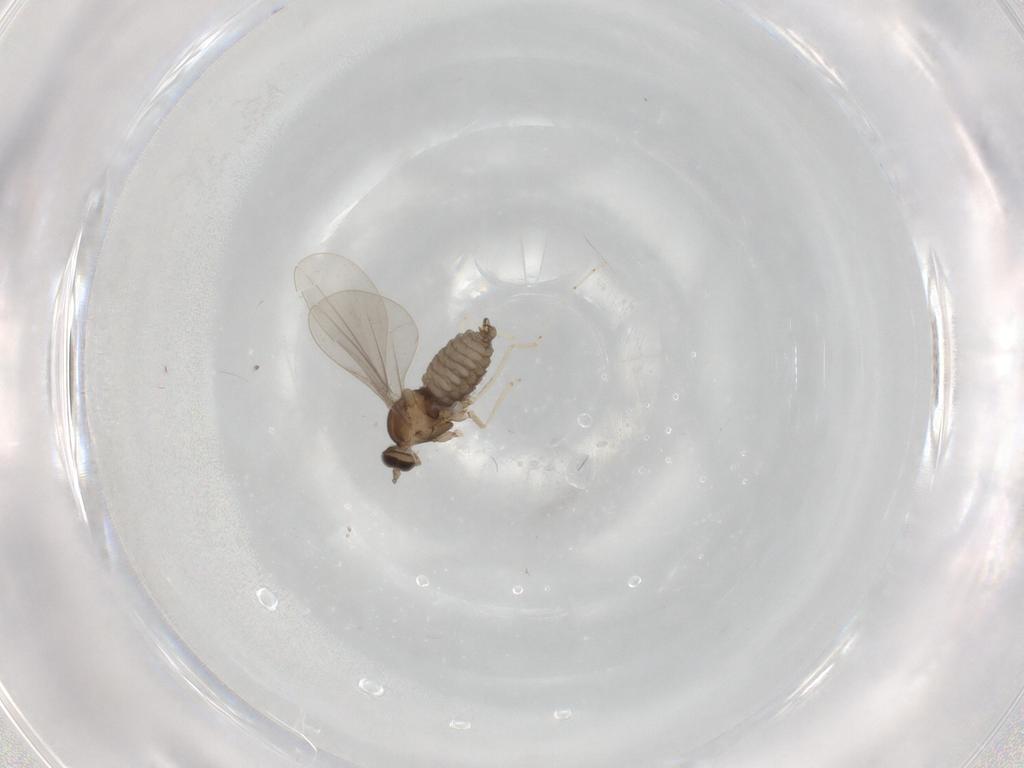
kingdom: Animalia
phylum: Arthropoda
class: Insecta
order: Diptera
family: Cecidomyiidae
